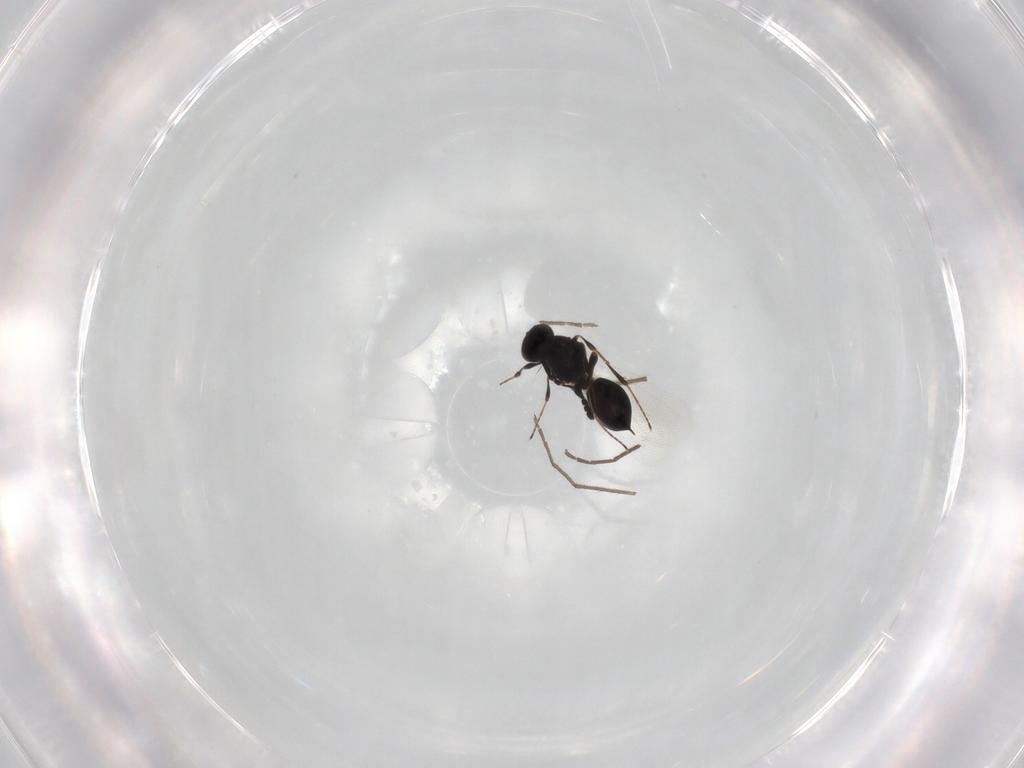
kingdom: Animalia
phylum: Arthropoda
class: Insecta
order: Hymenoptera
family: Platygastridae
